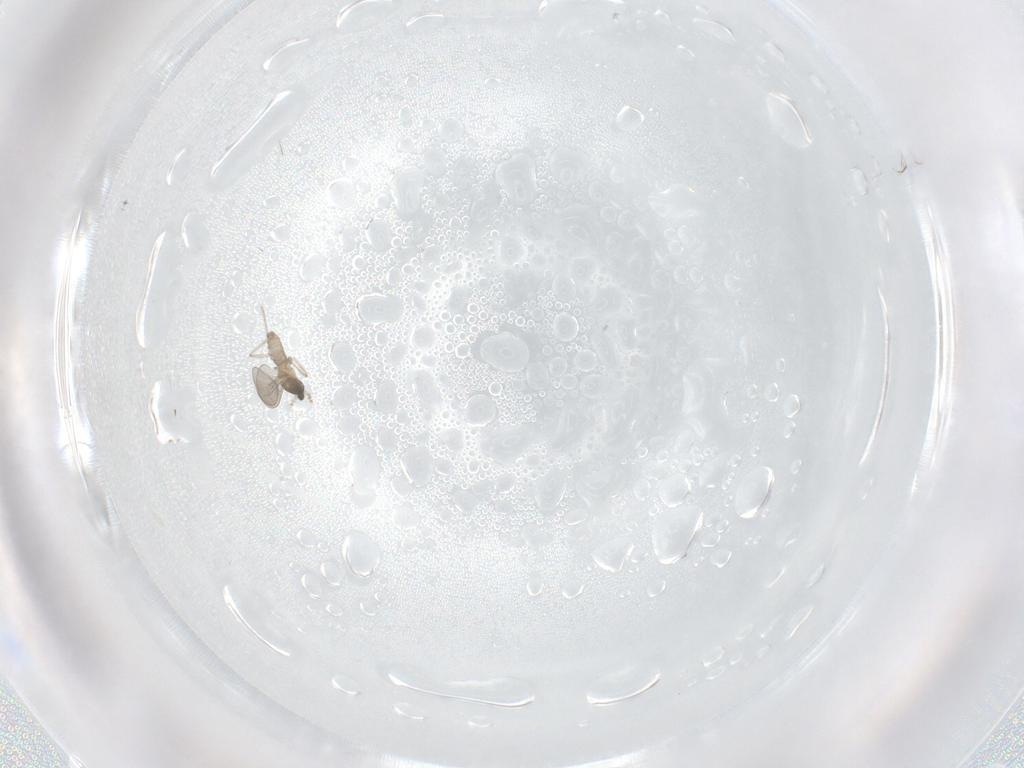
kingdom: Animalia
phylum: Arthropoda
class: Insecta
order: Diptera
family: Cecidomyiidae
